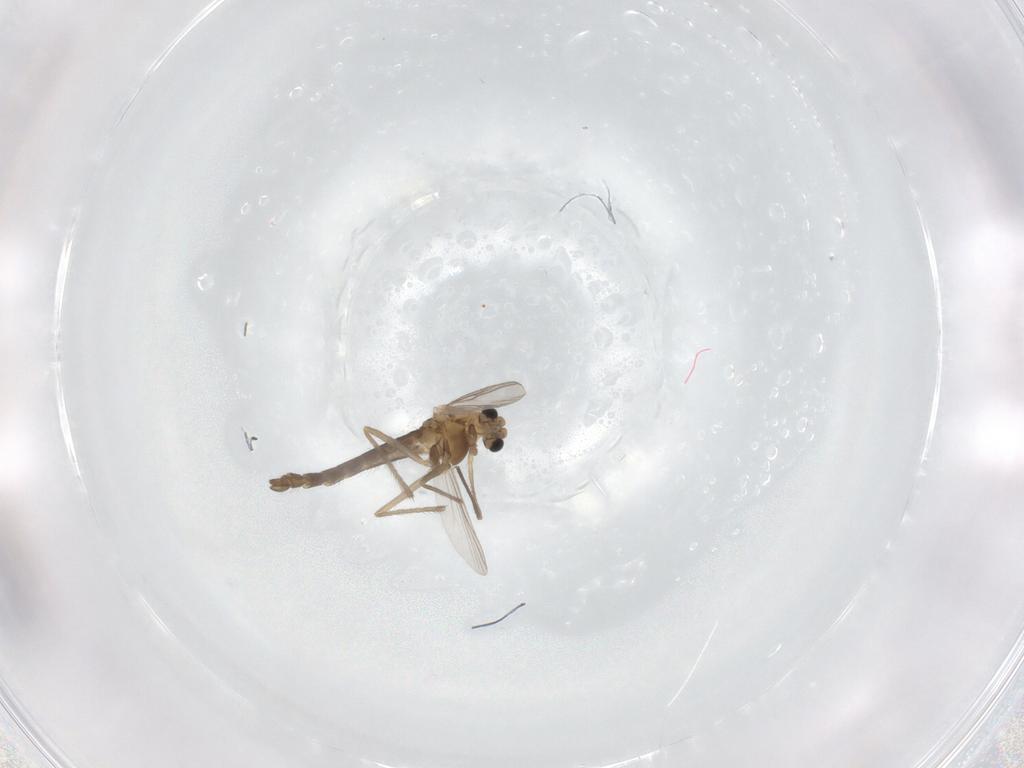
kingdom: Animalia
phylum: Arthropoda
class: Insecta
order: Diptera
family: Chironomidae
